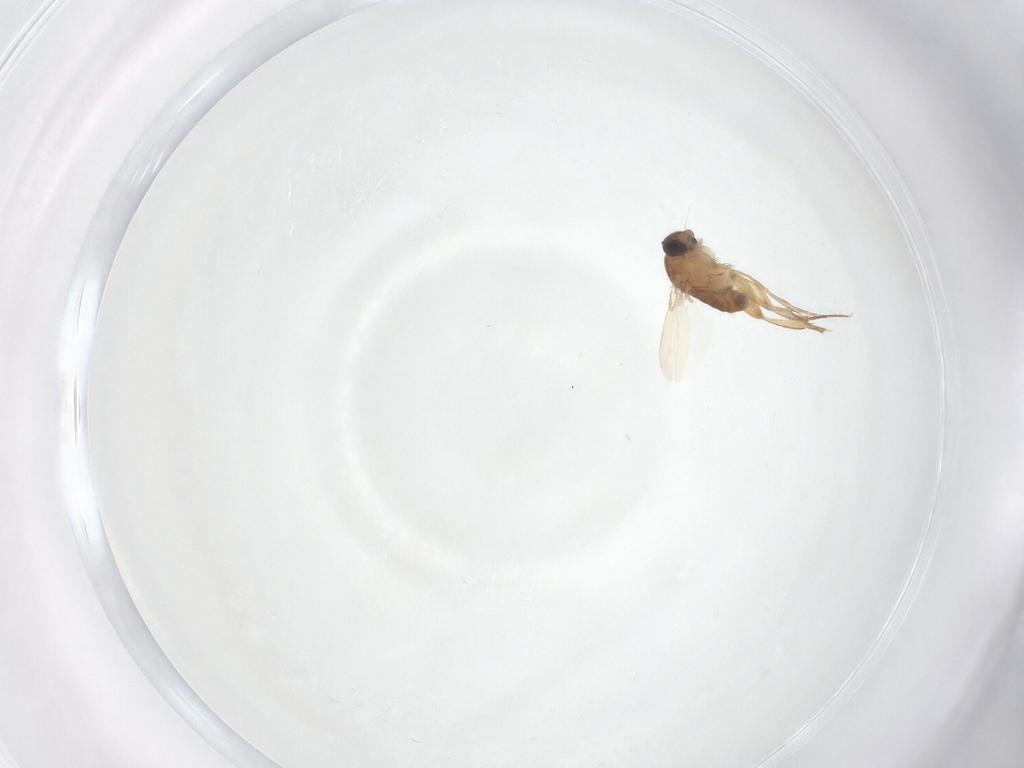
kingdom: Animalia
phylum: Arthropoda
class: Insecta
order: Diptera
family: Phoridae
